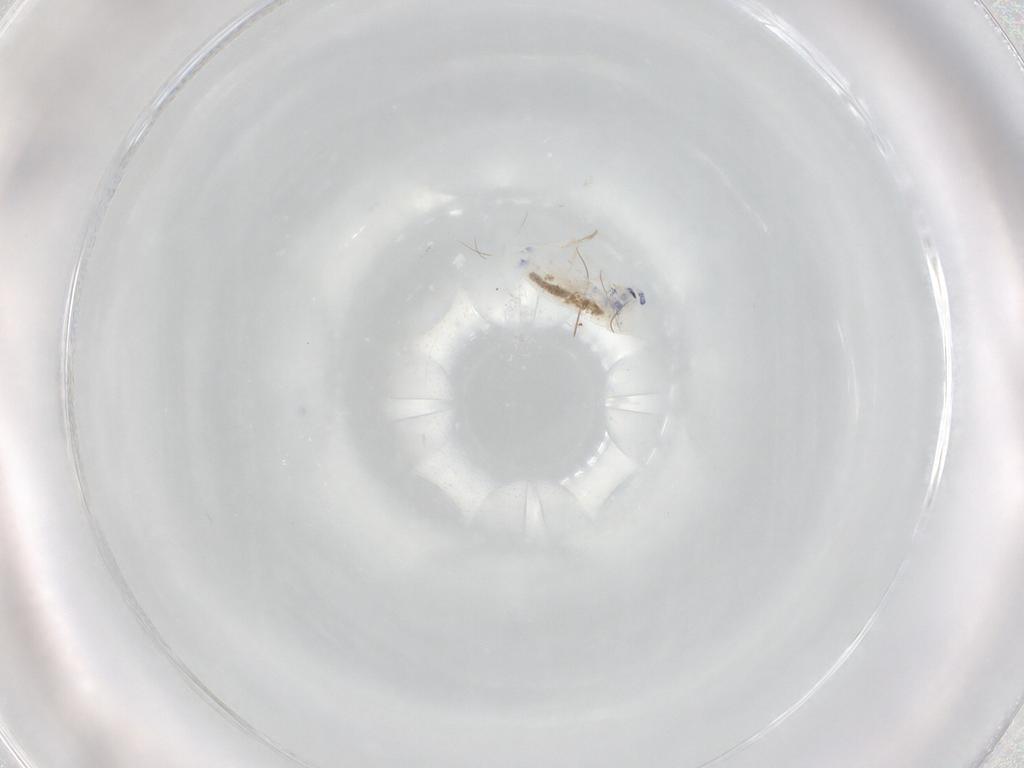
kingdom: Animalia
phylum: Arthropoda
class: Collembola
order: Entomobryomorpha
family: Entomobryidae
